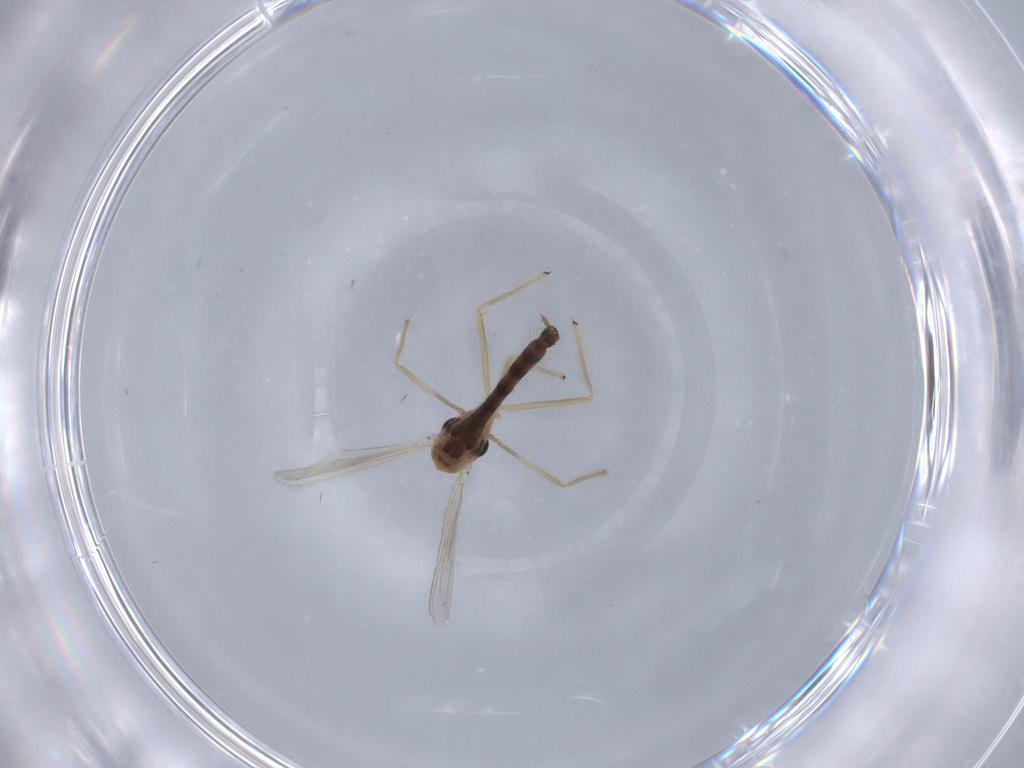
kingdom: Animalia
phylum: Arthropoda
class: Insecta
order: Diptera
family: Chironomidae
